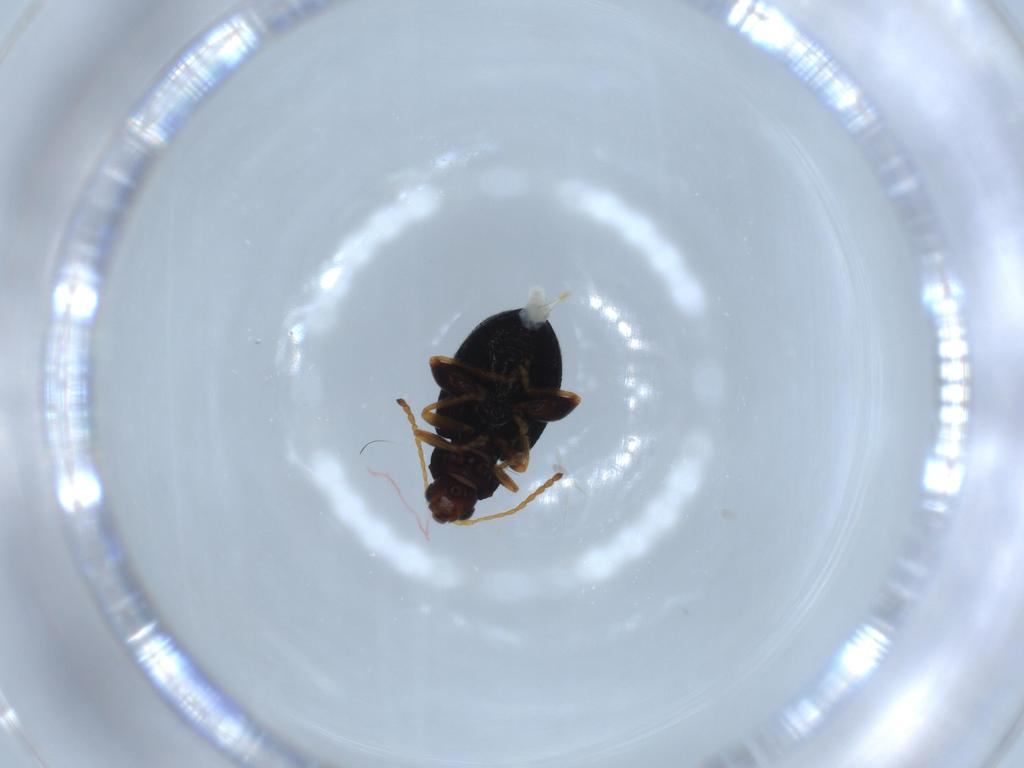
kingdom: Animalia
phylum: Arthropoda
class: Insecta
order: Coleoptera
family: Chrysomelidae
